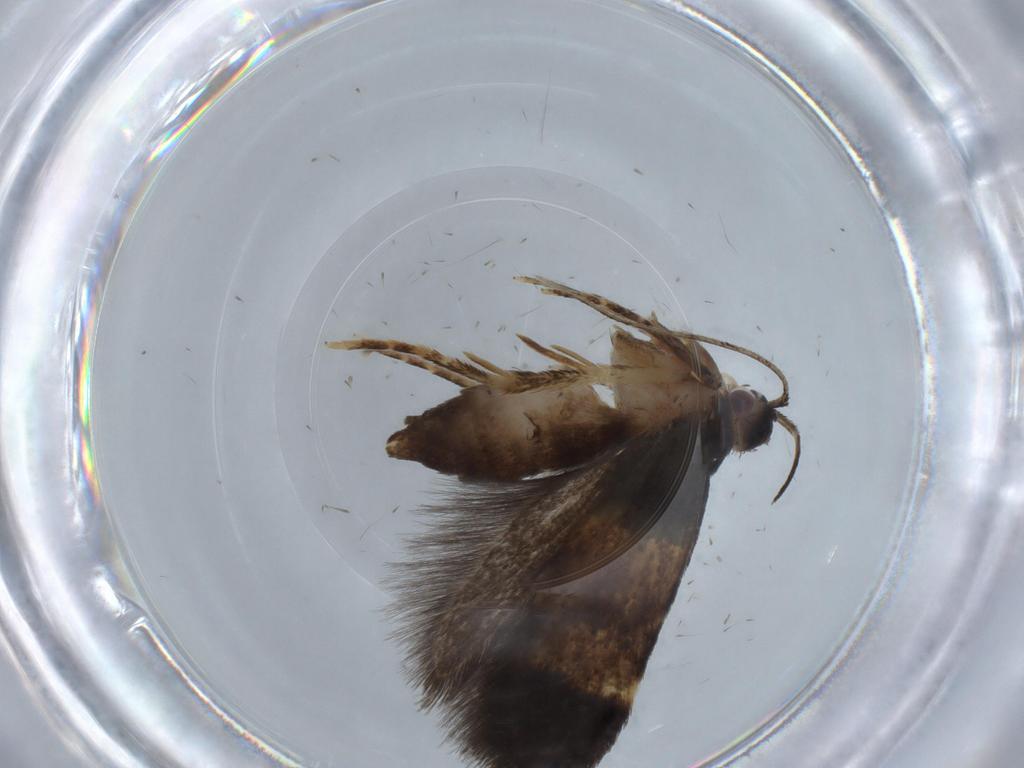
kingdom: Animalia
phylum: Arthropoda
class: Insecta
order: Lepidoptera
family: Cosmopterigidae
